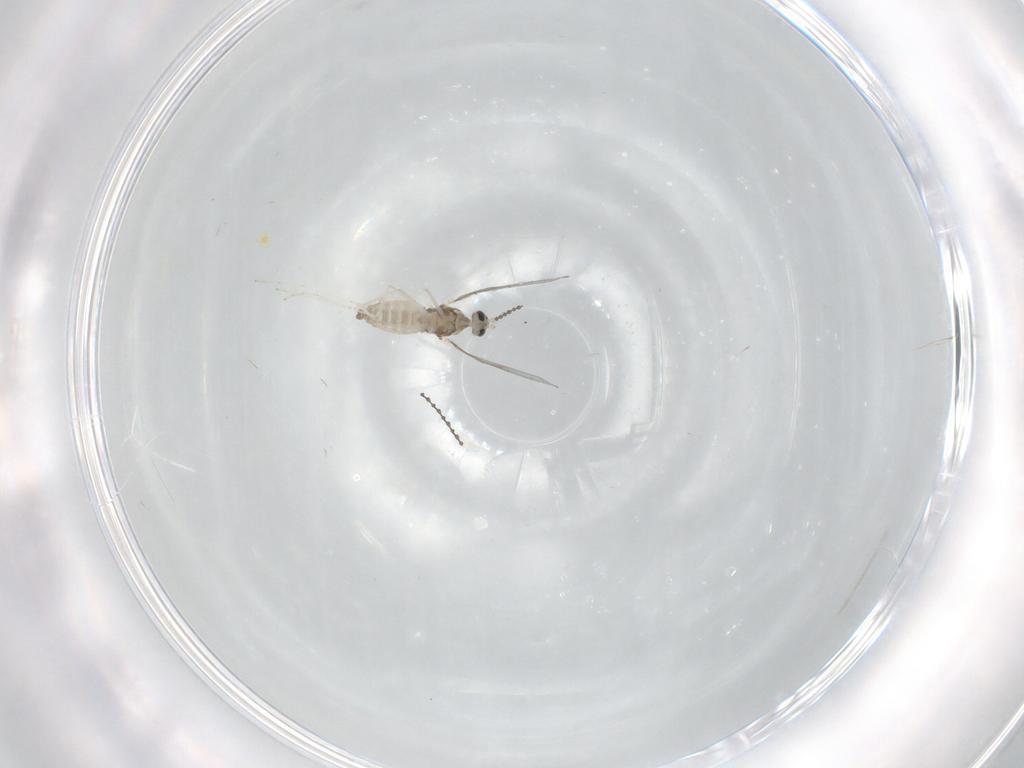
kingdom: Animalia
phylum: Arthropoda
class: Insecta
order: Diptera
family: Cecidomyiidae
